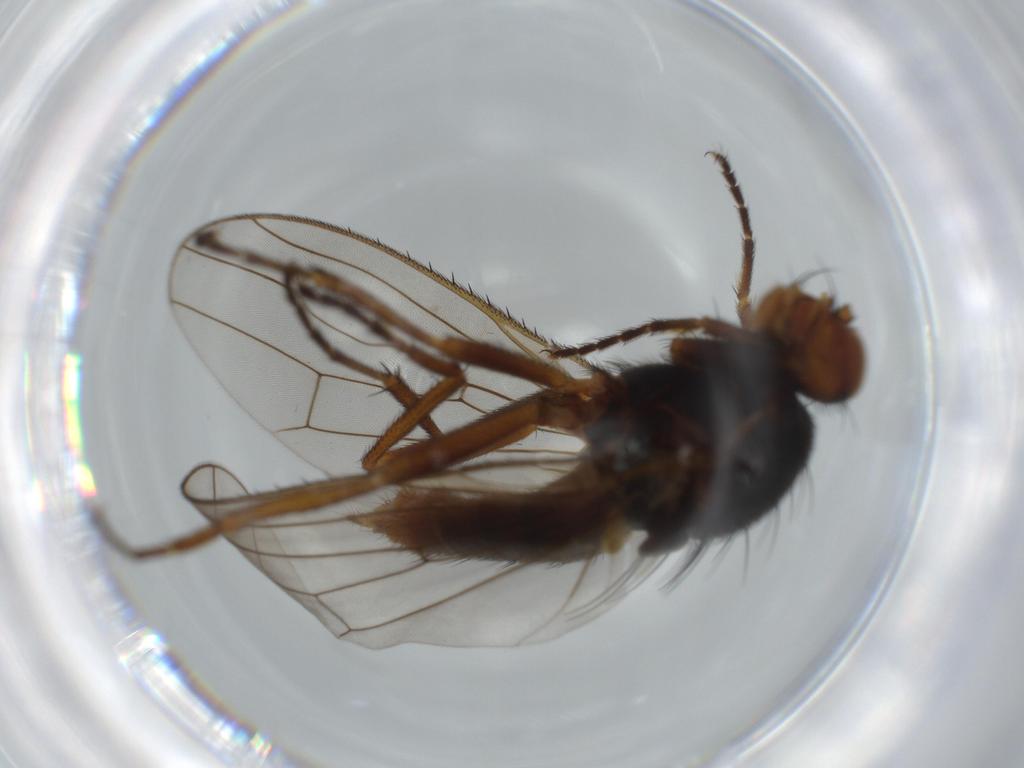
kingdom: Animalia
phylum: Arthropoda
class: Insecta
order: Diptera
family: Heleomyzidae
